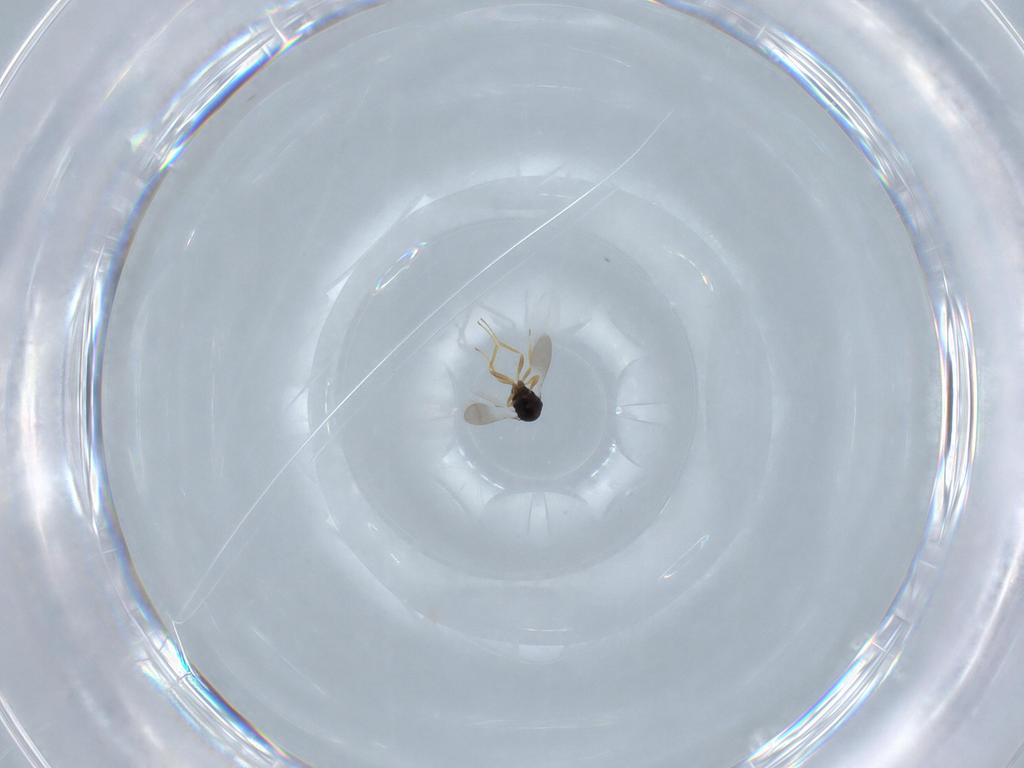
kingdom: Animalia
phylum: Arthropoda
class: Insecta
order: Hymenoptera
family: Scelionidae
